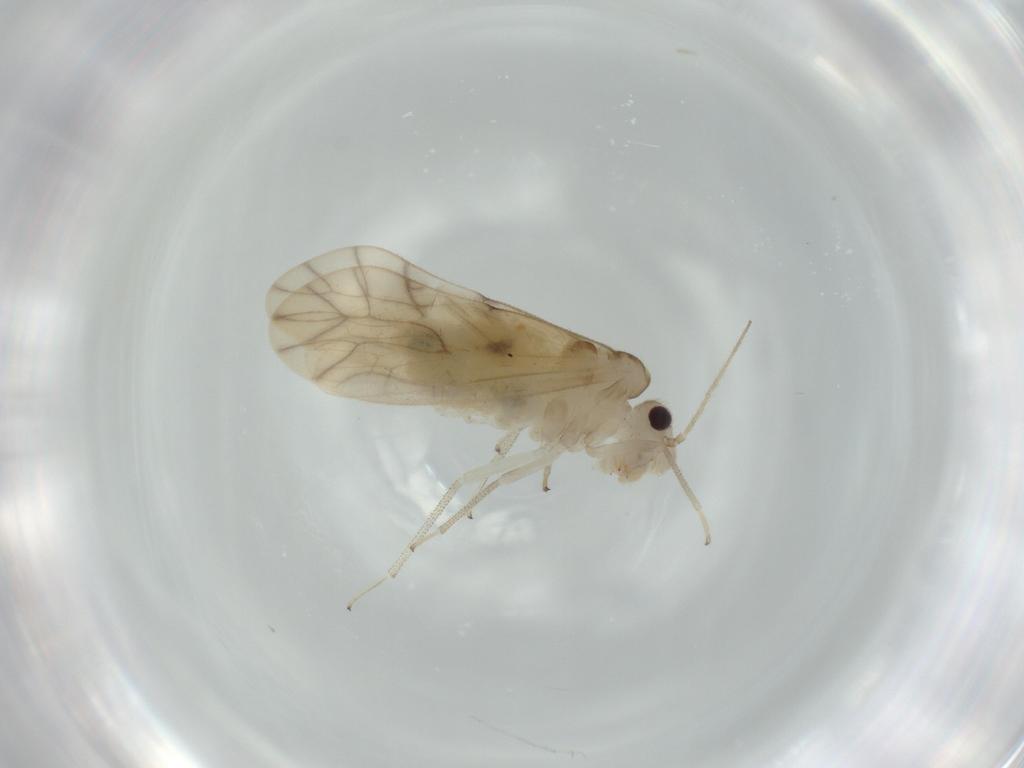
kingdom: Animalia
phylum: Arthropoda
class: Insecta
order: Psocodea
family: Caeciliusidae
